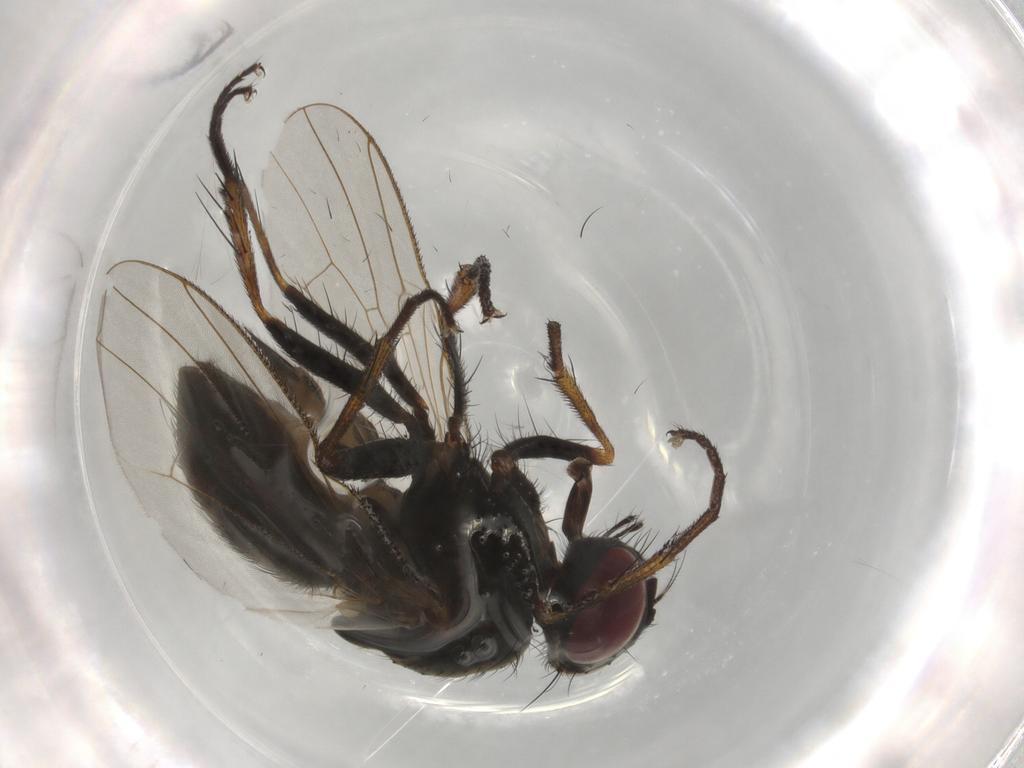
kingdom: Animalia
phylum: Arthropoda
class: Insecta
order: Diptera
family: Muscidae
